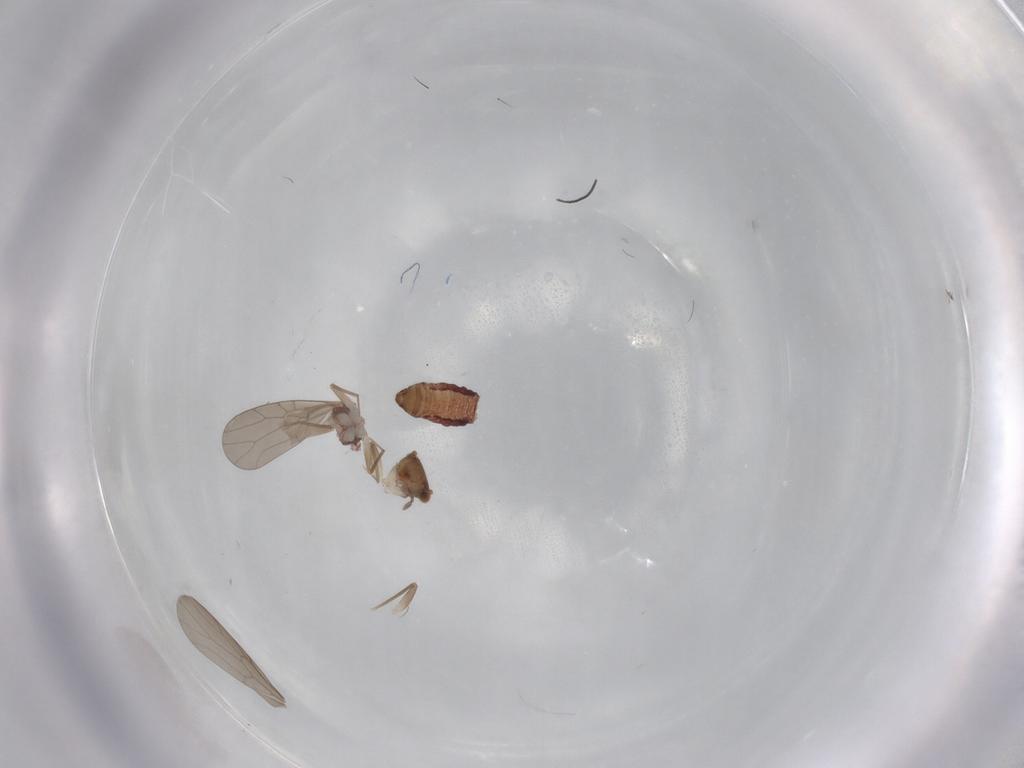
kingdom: Animalia
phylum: Arthropoda
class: Insecta
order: Psocodea
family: Lepidopsocidae
